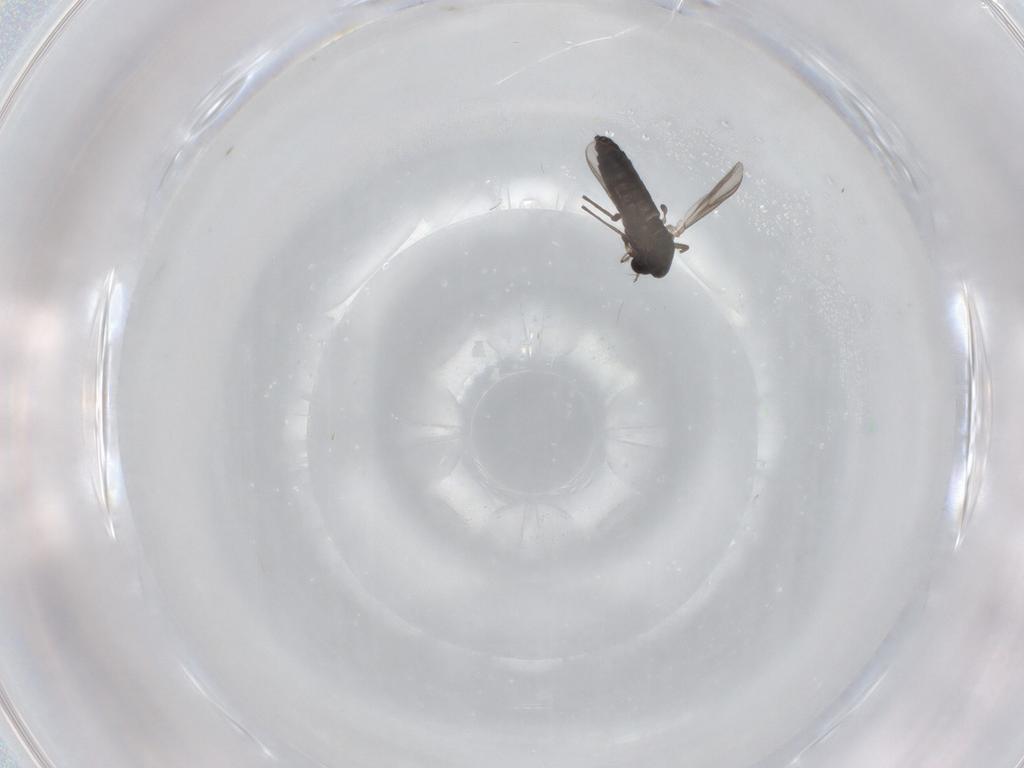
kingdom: Animalia
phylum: Arthropoda
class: Insecta
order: Diptera
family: Chironomidae
